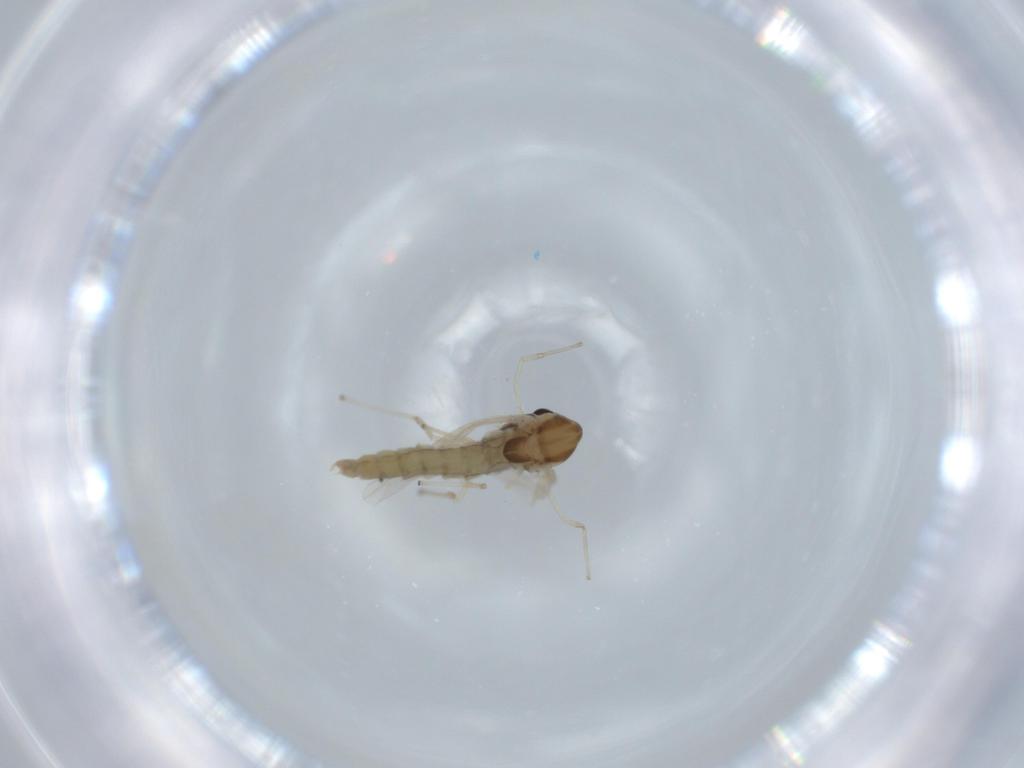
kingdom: Animalia
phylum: Arthropoda
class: Insecta
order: Diptera
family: Chironomidae
